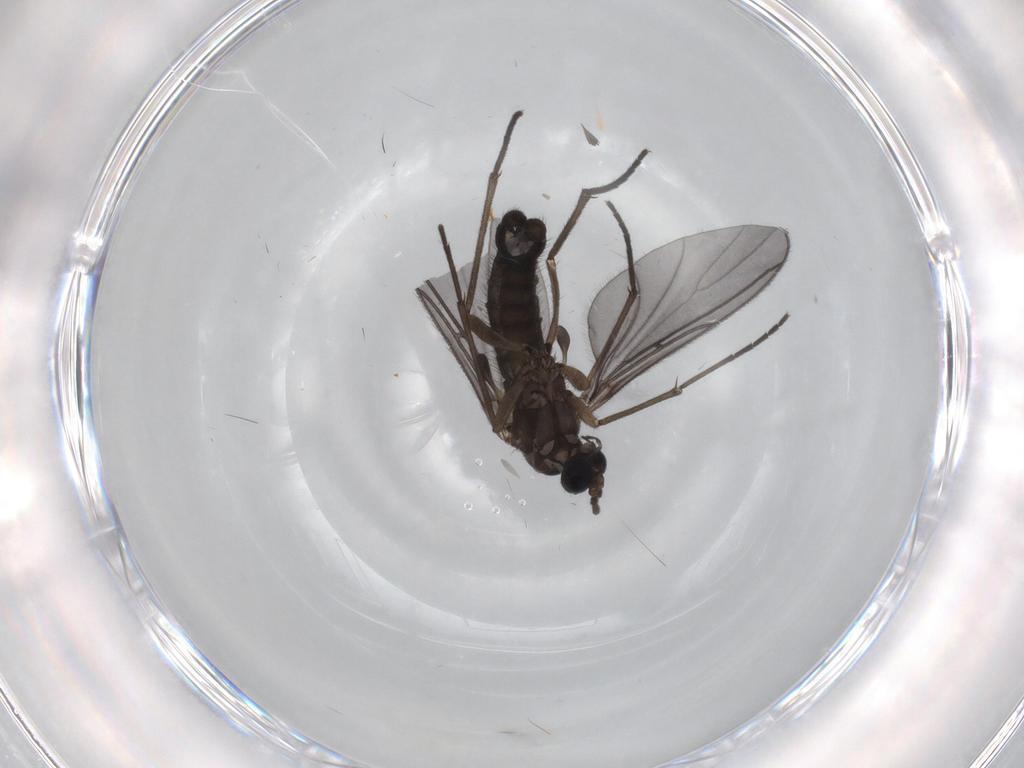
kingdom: Animalia
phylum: Arthropoda
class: Insecta
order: Diptera
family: Sciaridae
